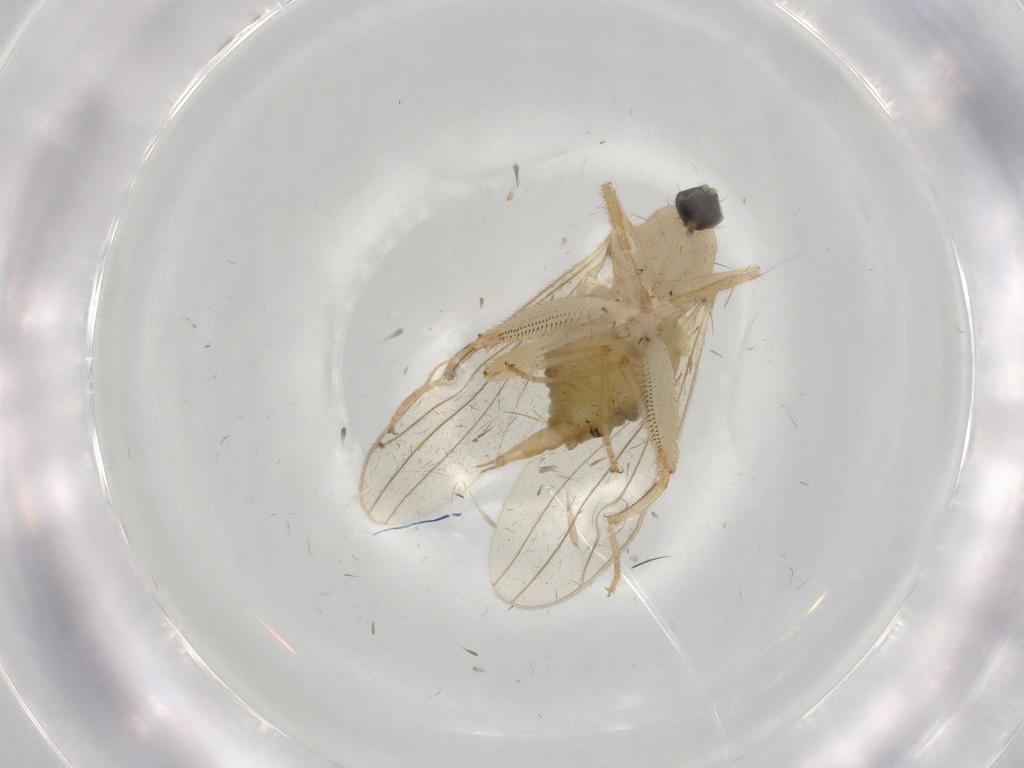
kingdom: Animalia
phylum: Arthropoda
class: Insecta
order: Diptera
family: Hybotidae
